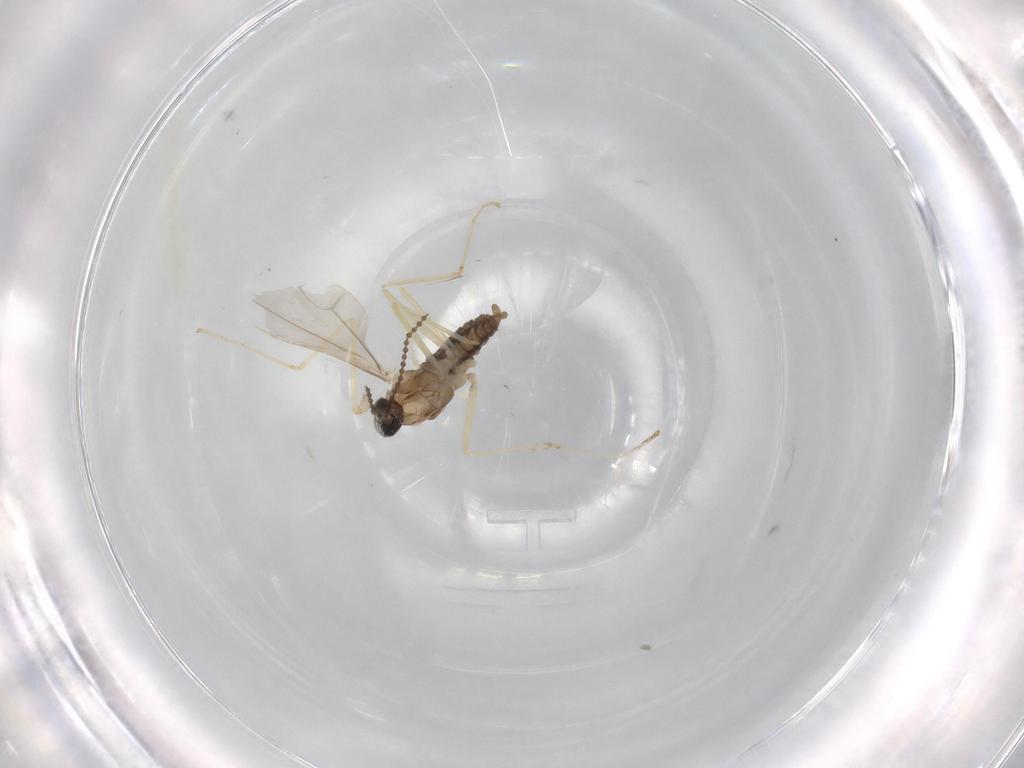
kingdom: Animalia
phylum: Arthropoda
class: Insecta
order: Diptera
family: Cecidomyiidae
